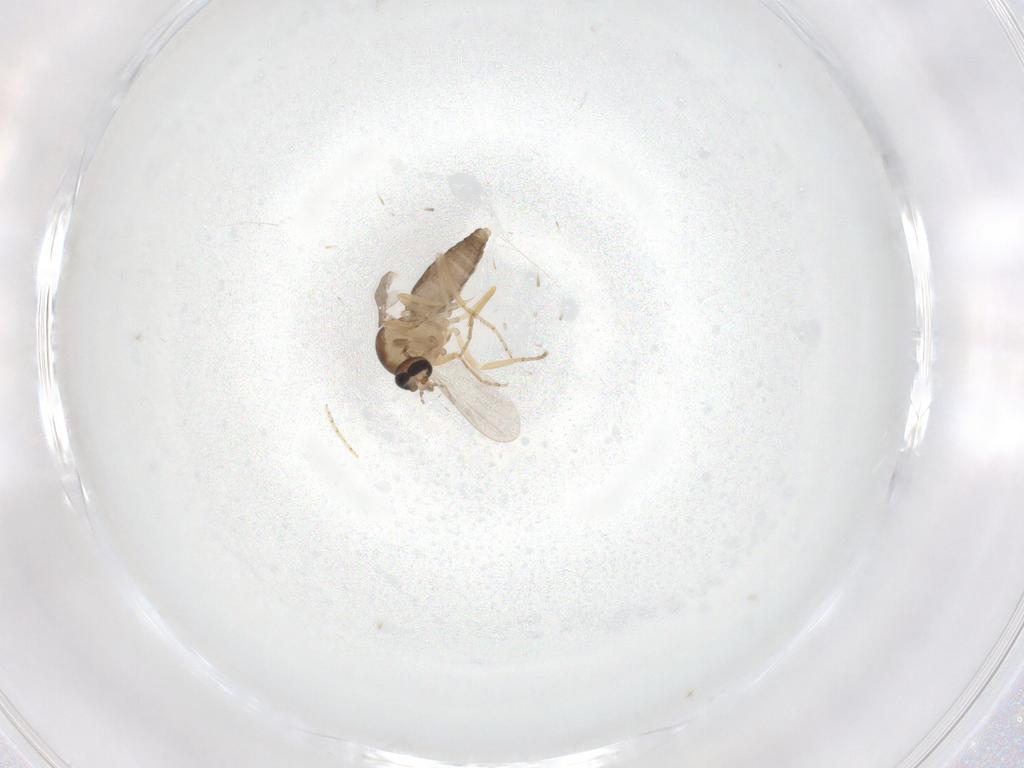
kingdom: Animalia
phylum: Arthropoda
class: Insecta
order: Diptera
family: Ceratopogonidae
